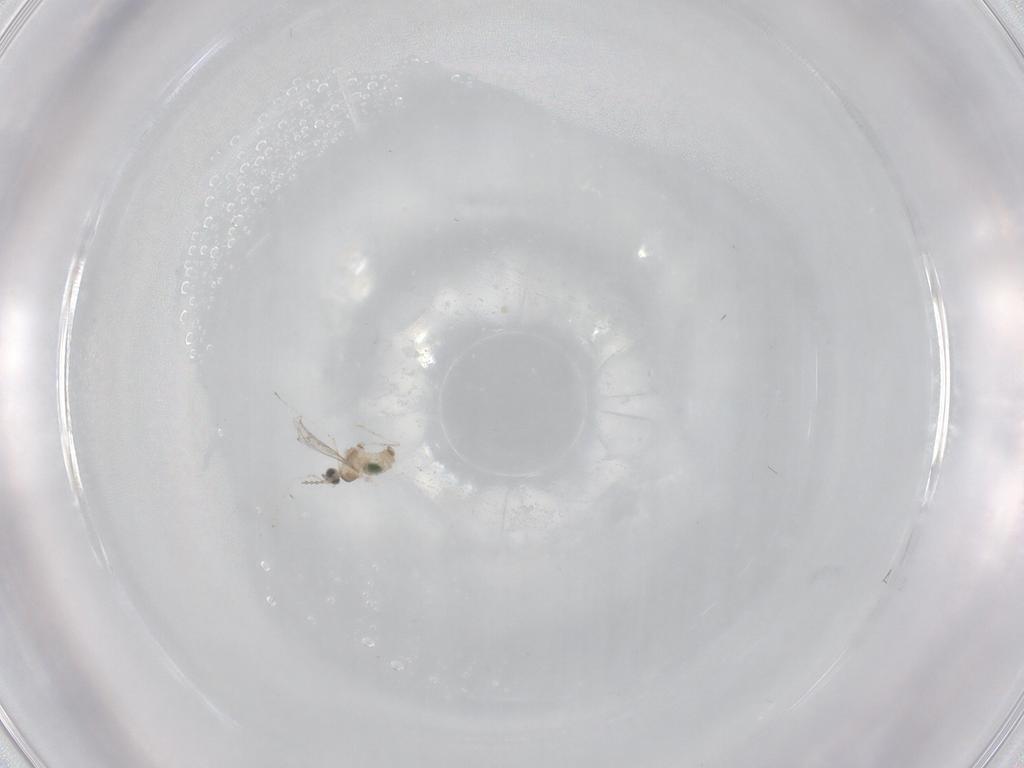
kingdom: Animalia
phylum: Arthropoda
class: Insecta
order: Diptera
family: Cecidomyiidae
